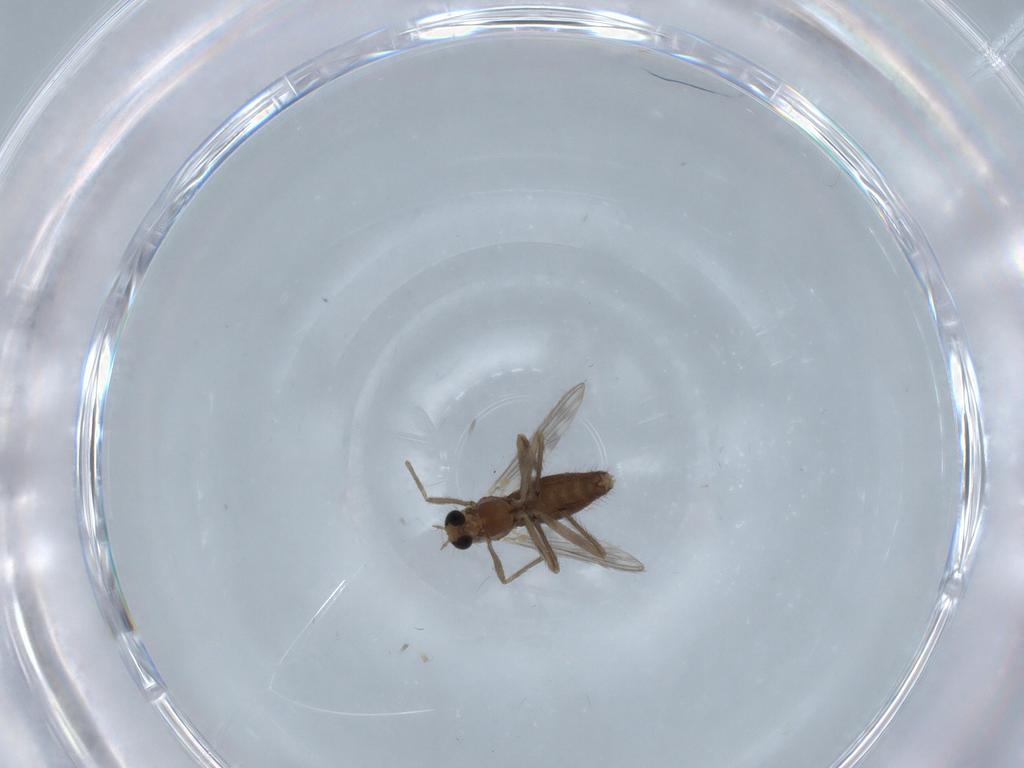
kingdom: Animalia
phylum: Arthropoda
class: Insecta
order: Diptera
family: Chironomidae
